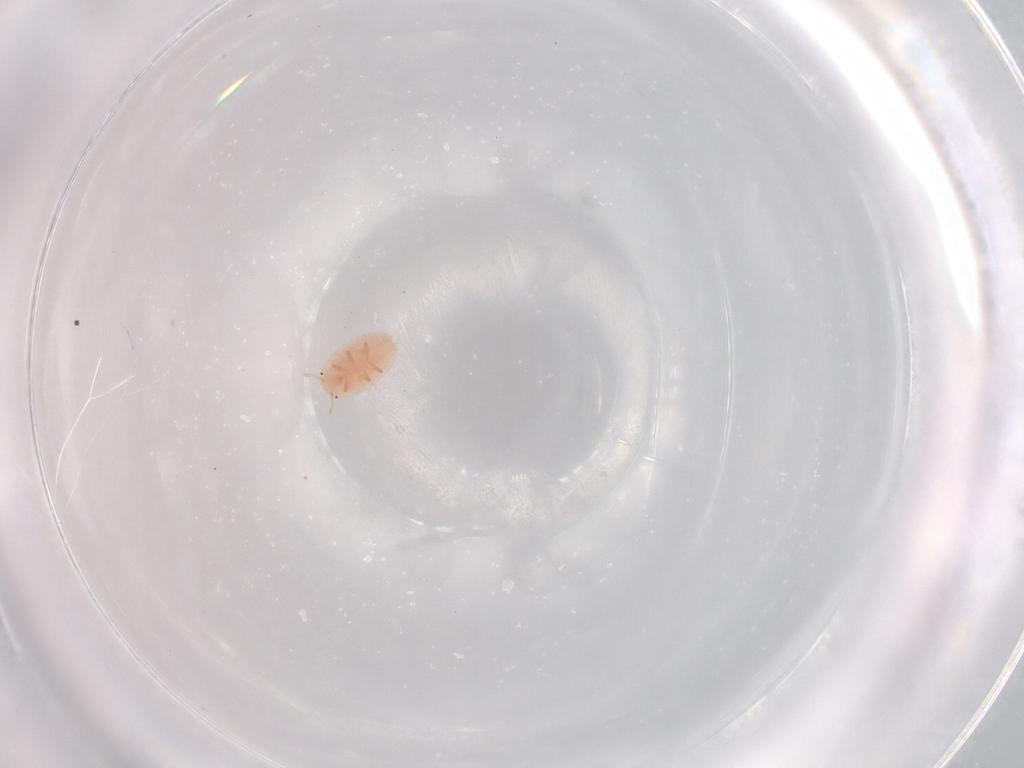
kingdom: Animalia
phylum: Arthropoda
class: Insecta
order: Hemiptera
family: Pseudococcidae
